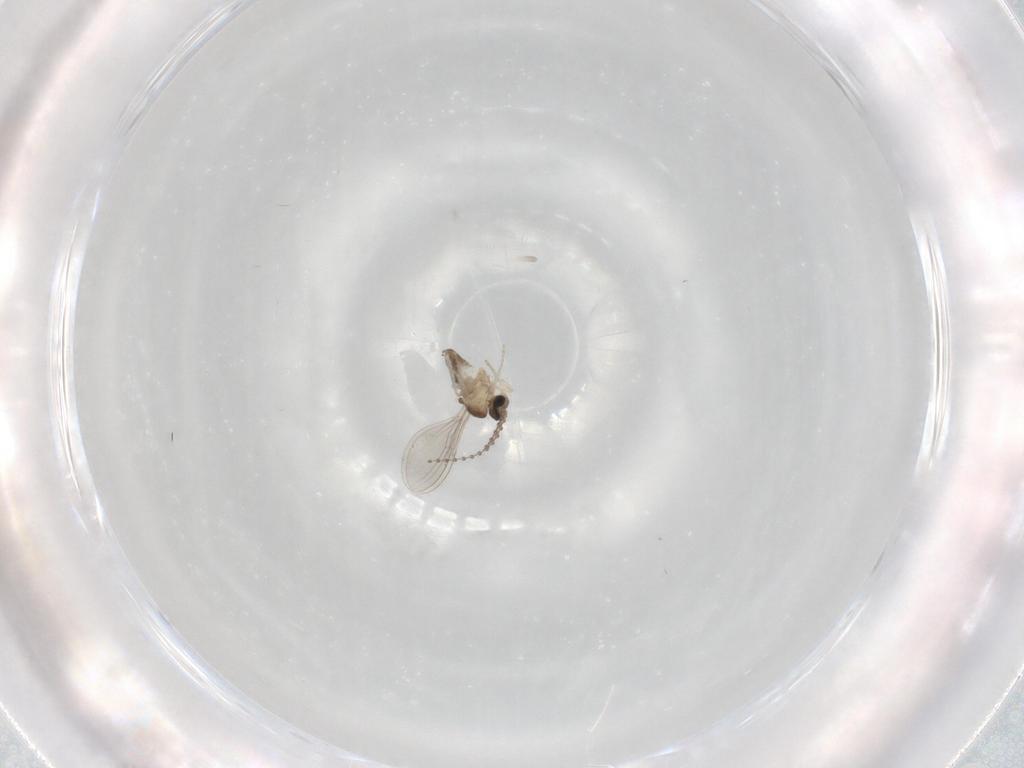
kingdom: Animalia
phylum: Arthropoda
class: Insecta
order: Diptera
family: Cecidomyiidae
